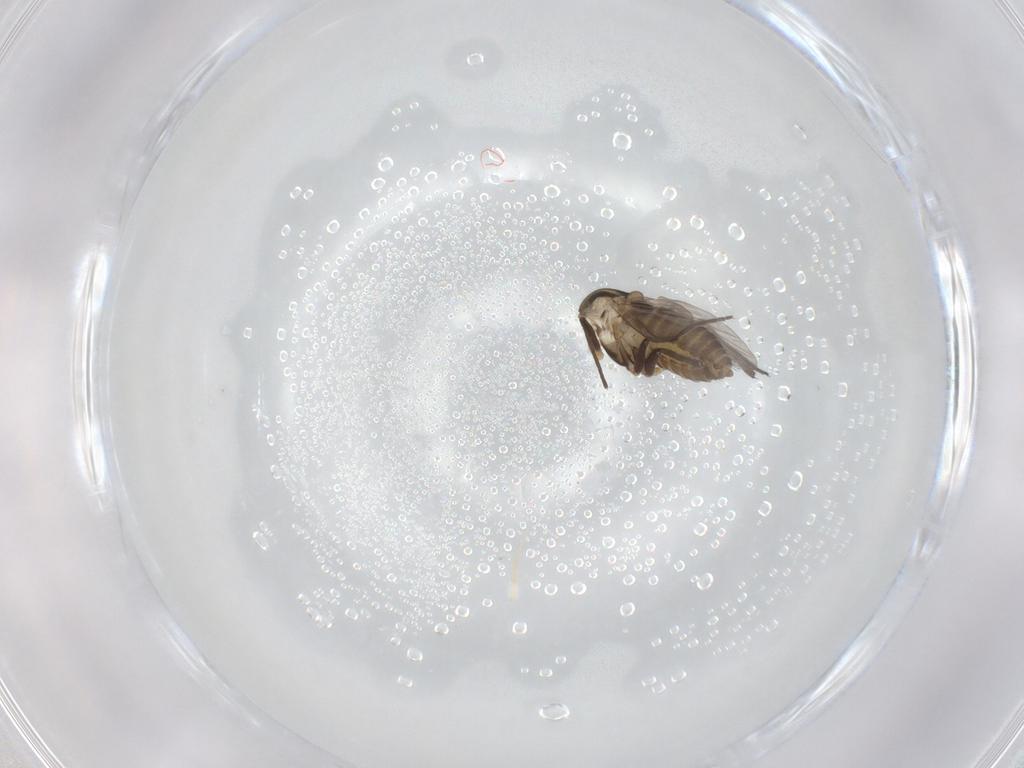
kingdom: Animalia
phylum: Arthropoda
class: Insecta
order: Diptera
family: Chironomidae
